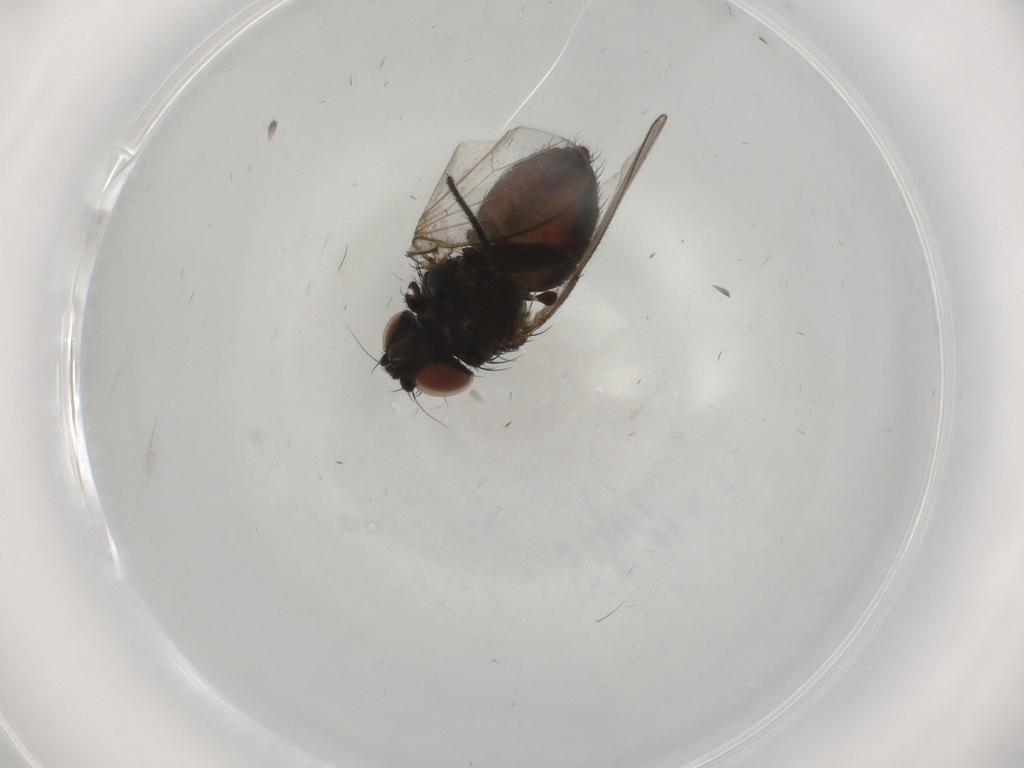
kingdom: Animalia
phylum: Arthropoda
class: Insecta
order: Diptera
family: Milichiidae
